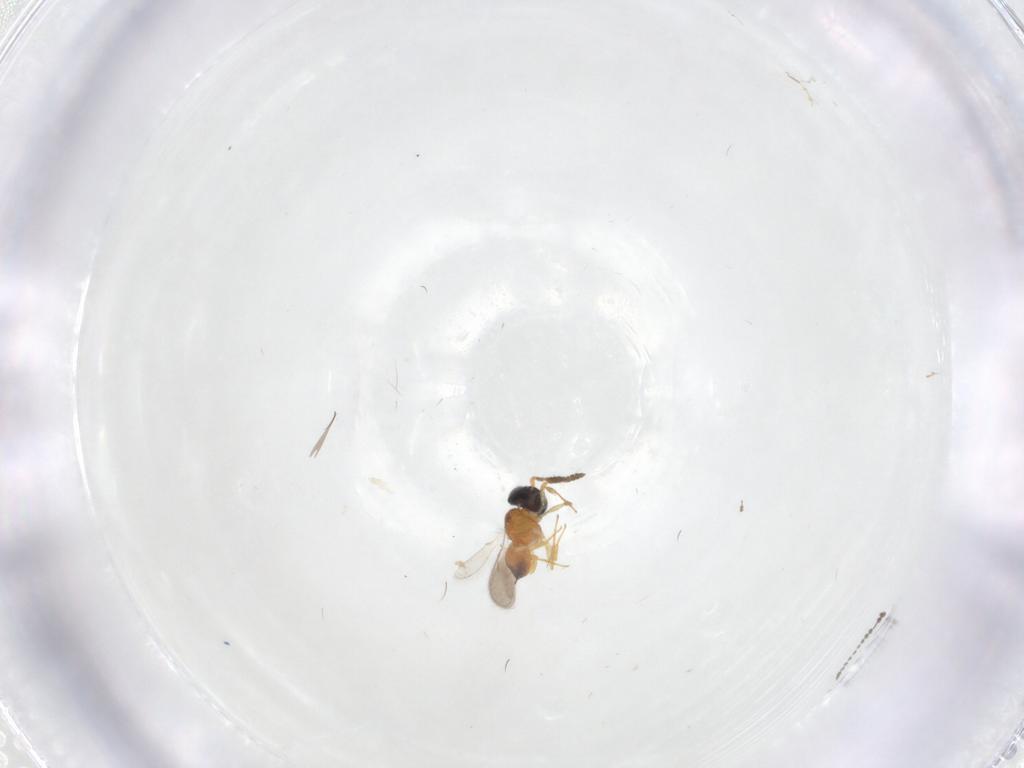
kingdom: Animalia
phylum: Arthropoda
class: Insecta
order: Hymenoptera
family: Scelionidae
